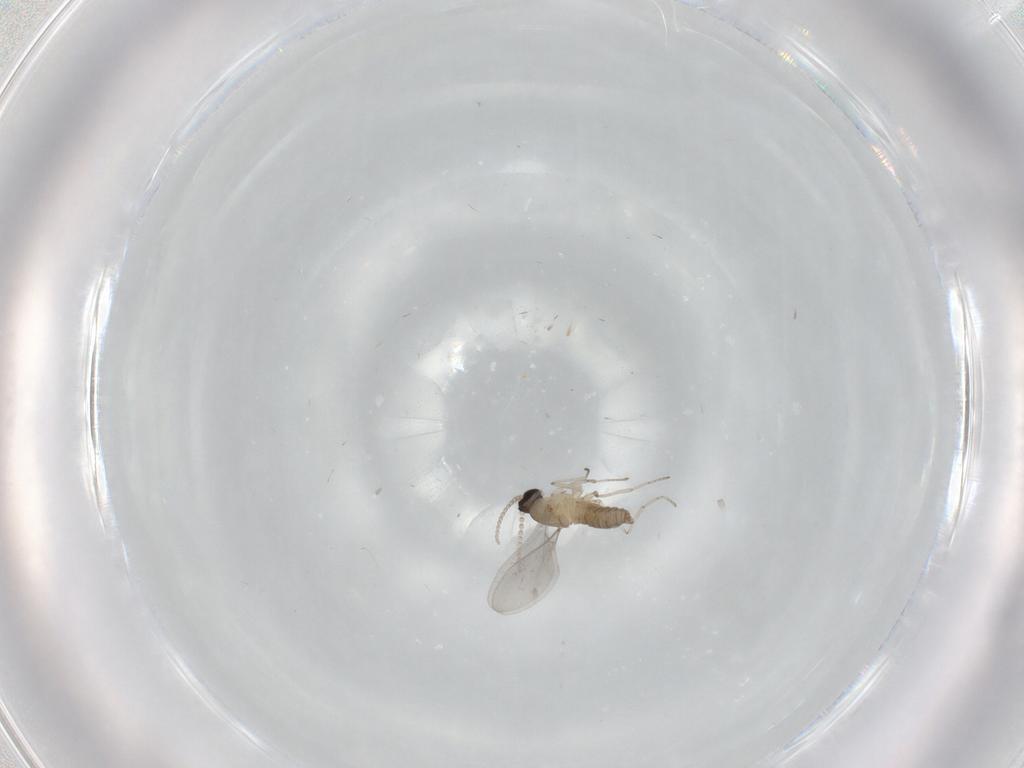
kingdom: Animalia
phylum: Arthropoda
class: Insecta
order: Diptera
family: Cecidomyiidae
